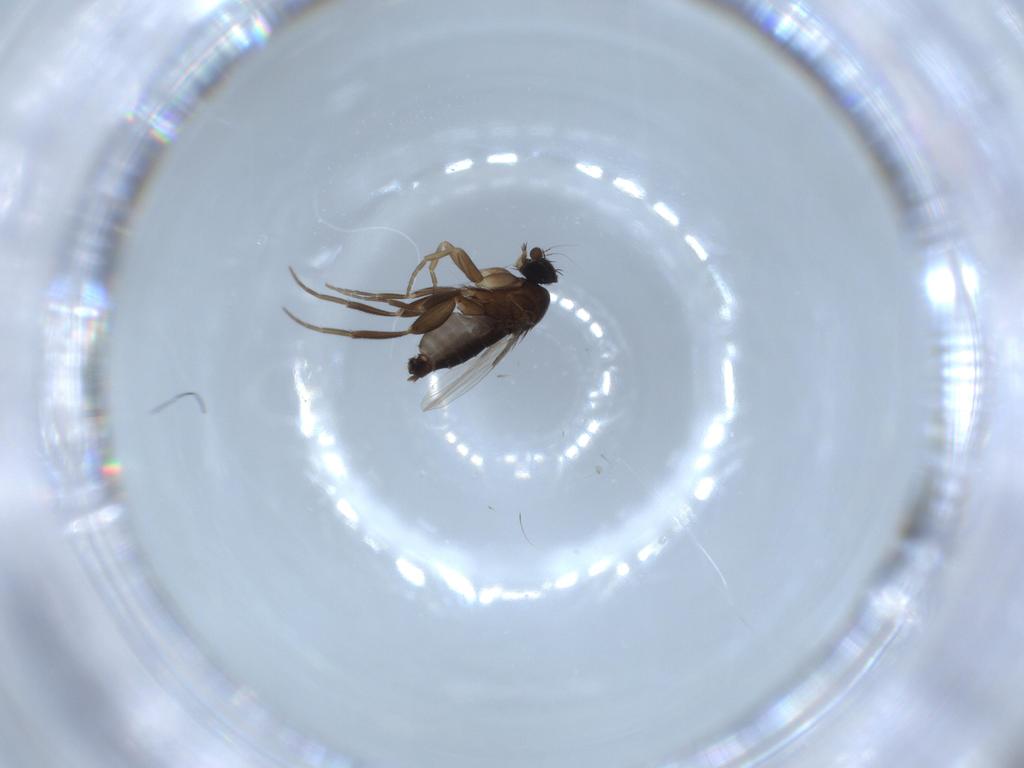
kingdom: Animalia
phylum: Arthropoda
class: Insecta
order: Diptera
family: Phoridae
